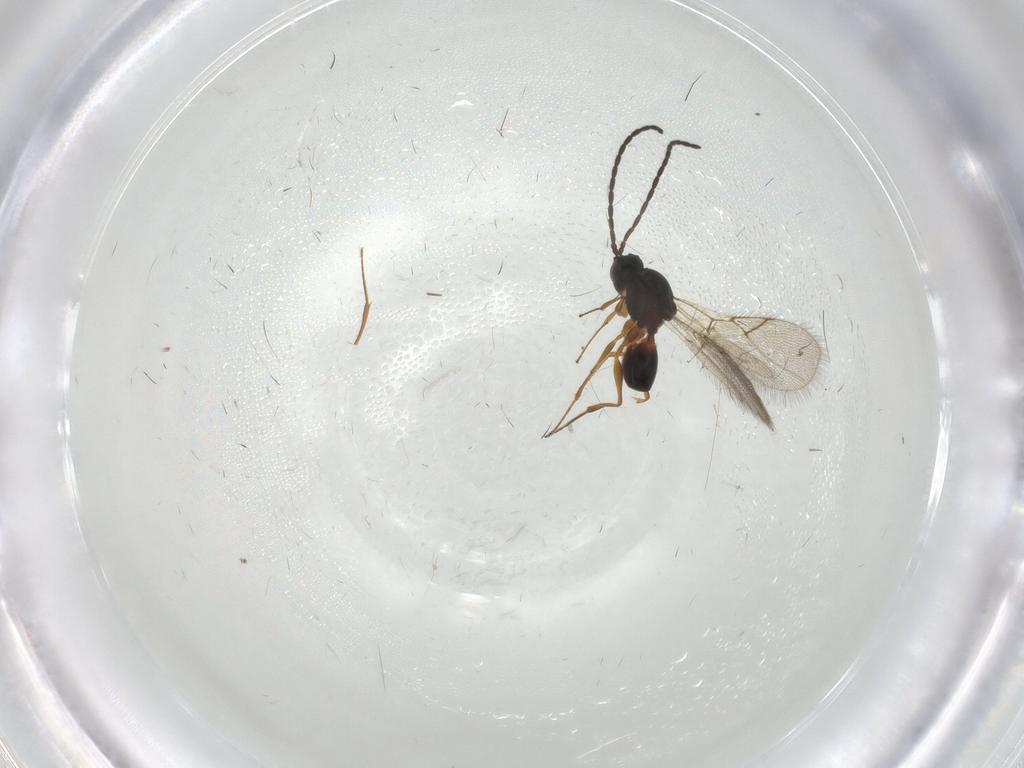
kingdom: Animalia
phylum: Arthropoda
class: Insecta
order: Hymenoptera
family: Figitidae
